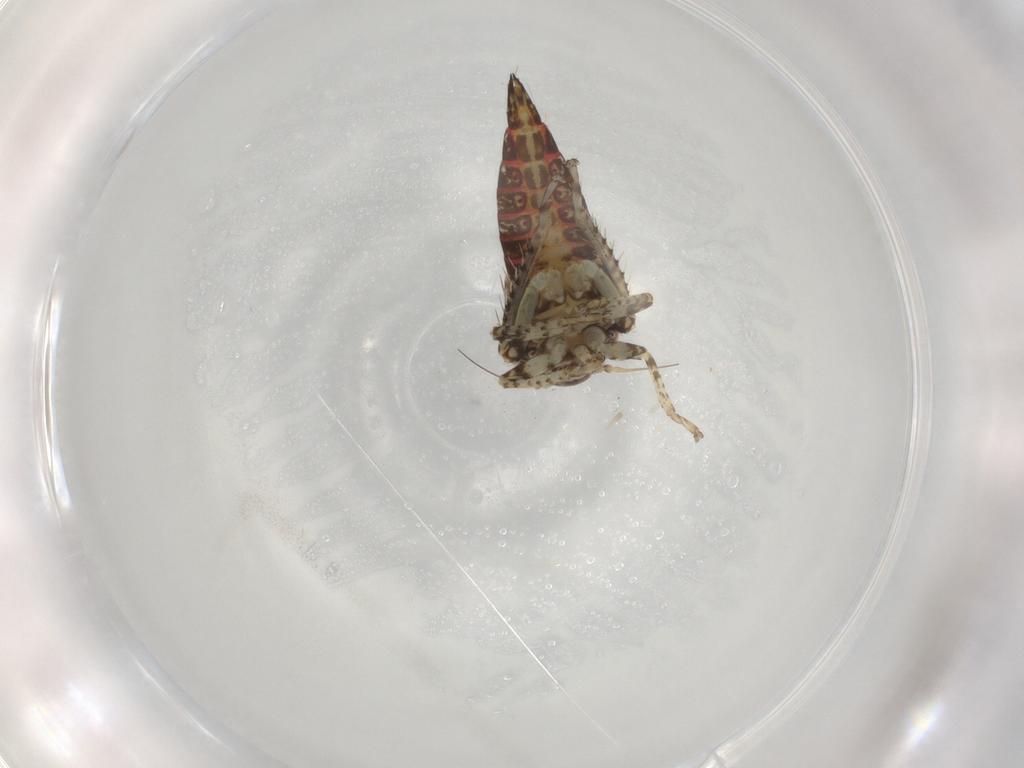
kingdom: Animalia
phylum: Arthropoda
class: Insecta
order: Hemiptera
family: Cicadellidae
